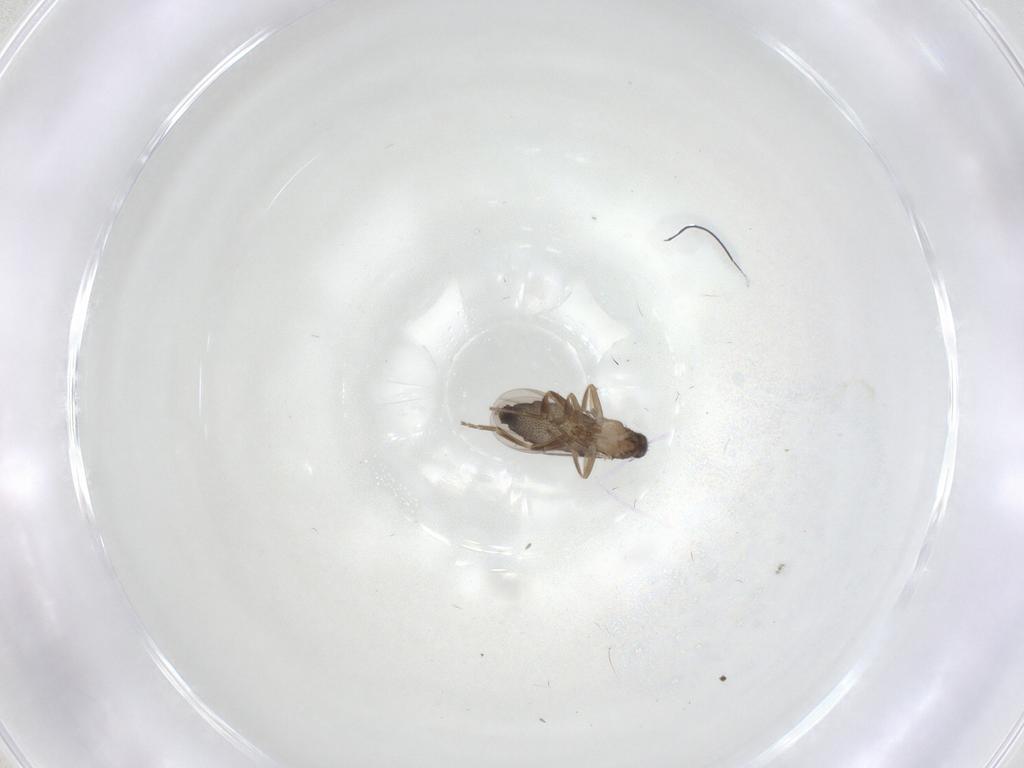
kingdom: Animalia
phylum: Arthropoda
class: Insecta
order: Diptera
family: Phoridae
